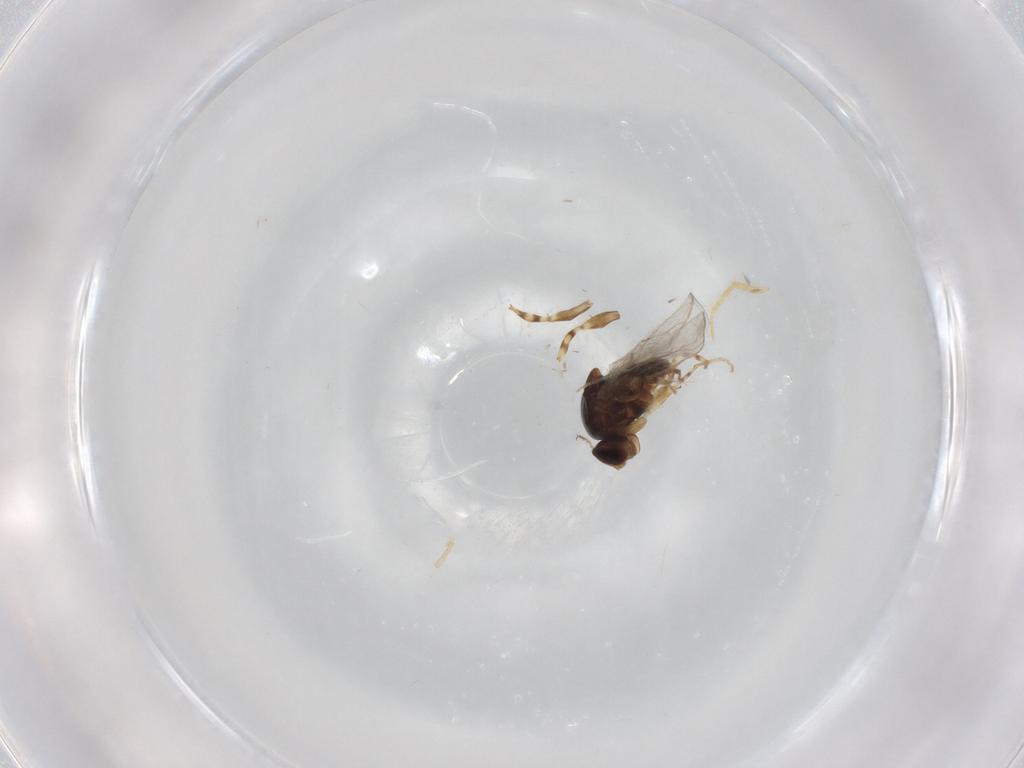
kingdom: Animalia
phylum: Arthropoda
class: Insecta
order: Diptera
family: Chloropidae
